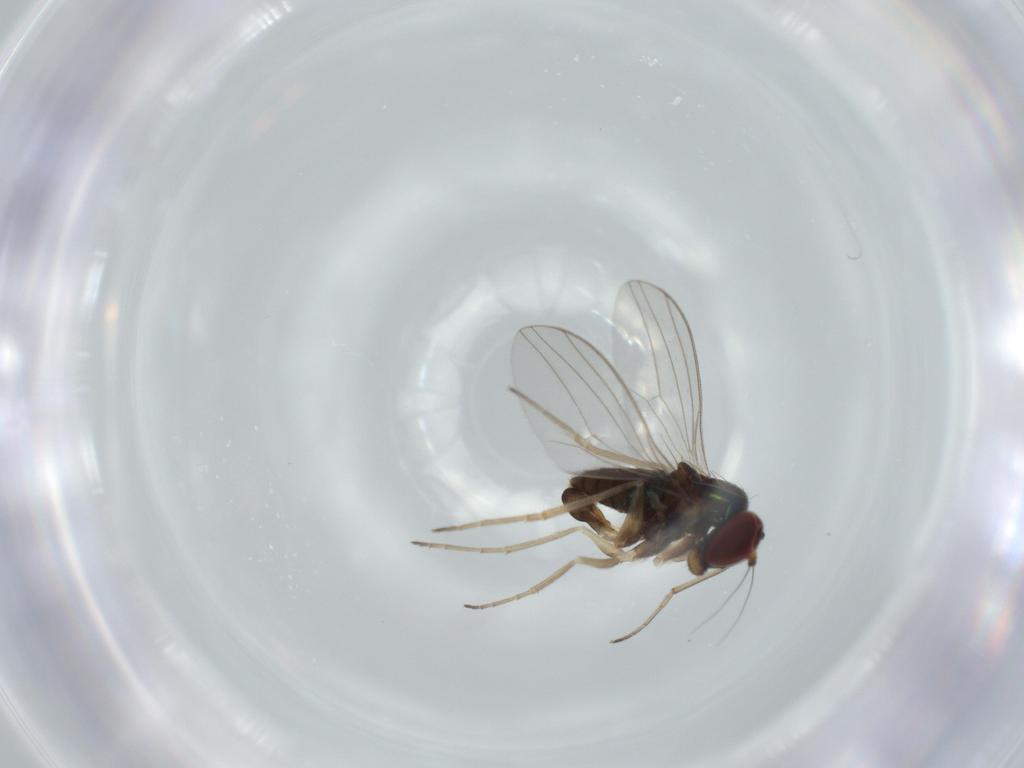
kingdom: Animalia
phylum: Arthropoda
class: Insecta
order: Diptera
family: Dolichopodidae
